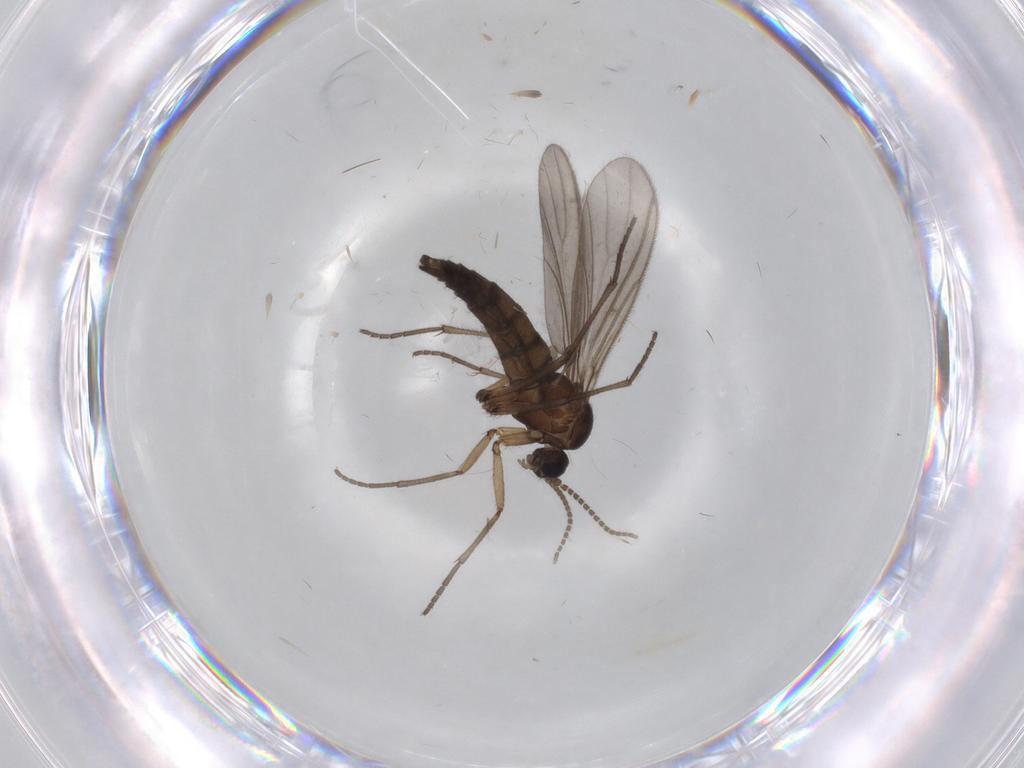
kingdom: Animalia
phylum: Arthropoda
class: Insecta
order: Diptera
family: Sciaridae
